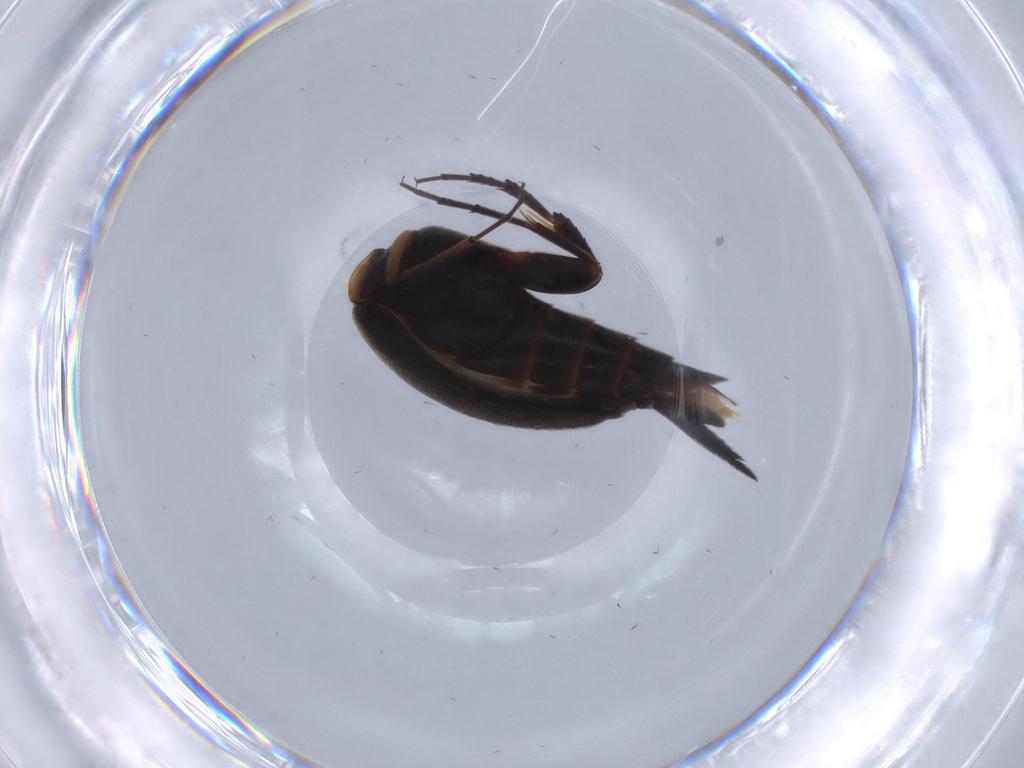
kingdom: Animalia
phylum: Arthropoda
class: Insecta
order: Coleoptera
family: Mordellidae
